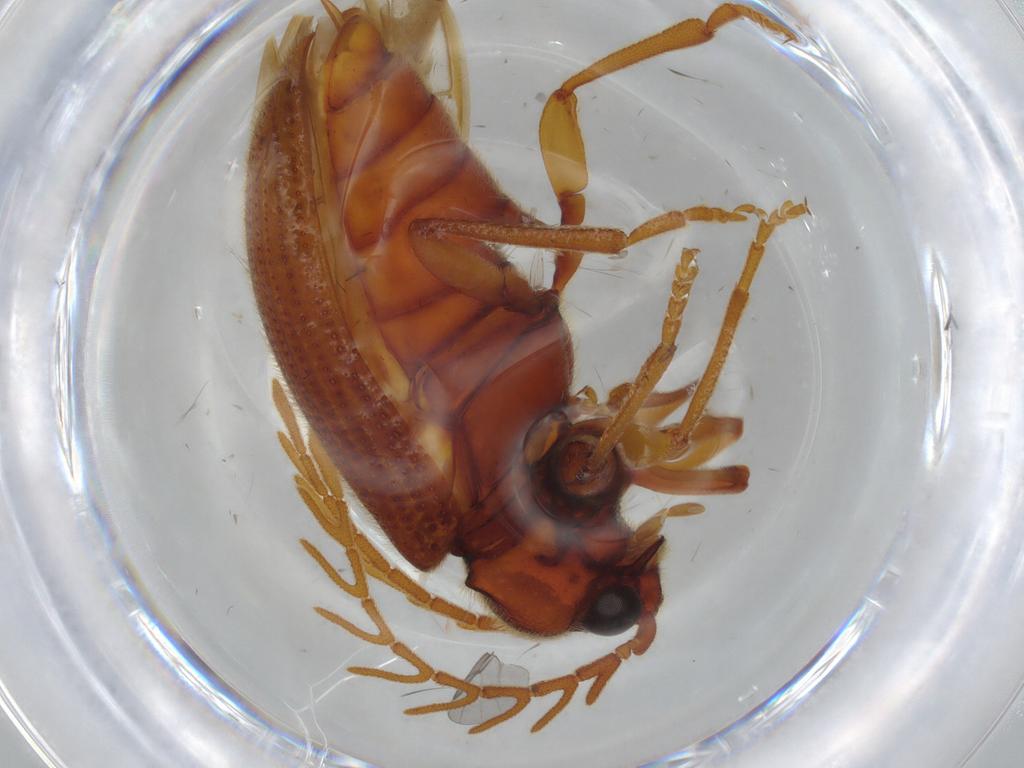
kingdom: Animalia
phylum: Arthropoda
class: Insecta
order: Coleoptera
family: Cerophytidae
